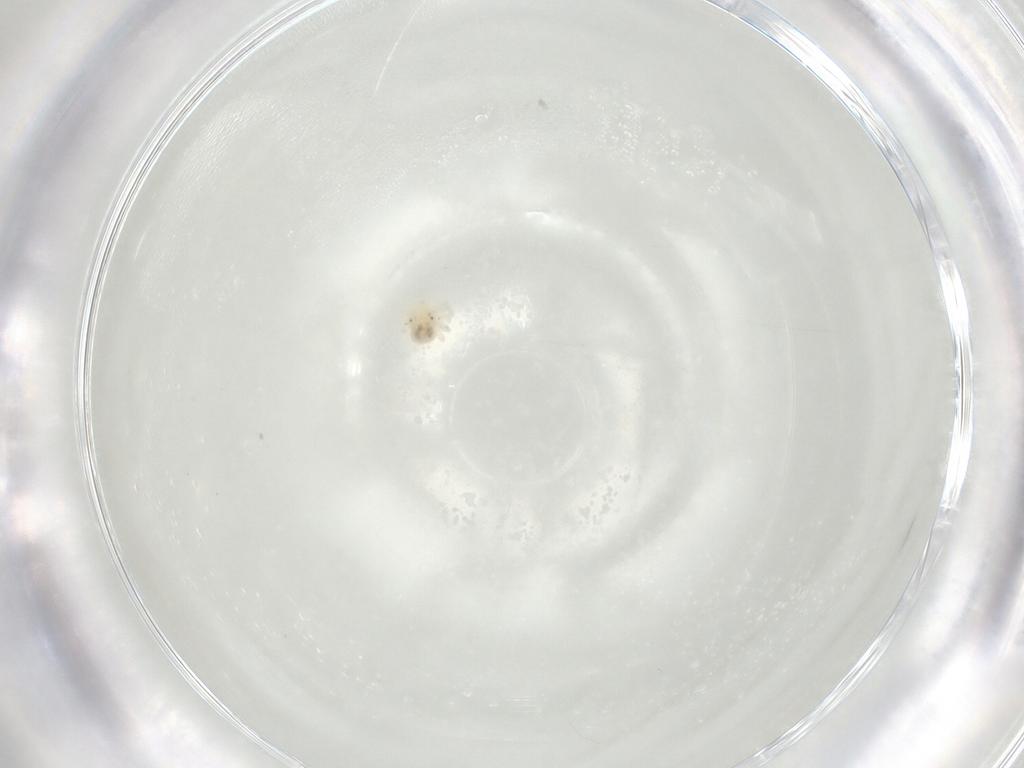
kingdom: Animalia
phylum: Arthropoda
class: Arachnida
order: Trombidiformes
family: Anystidae
